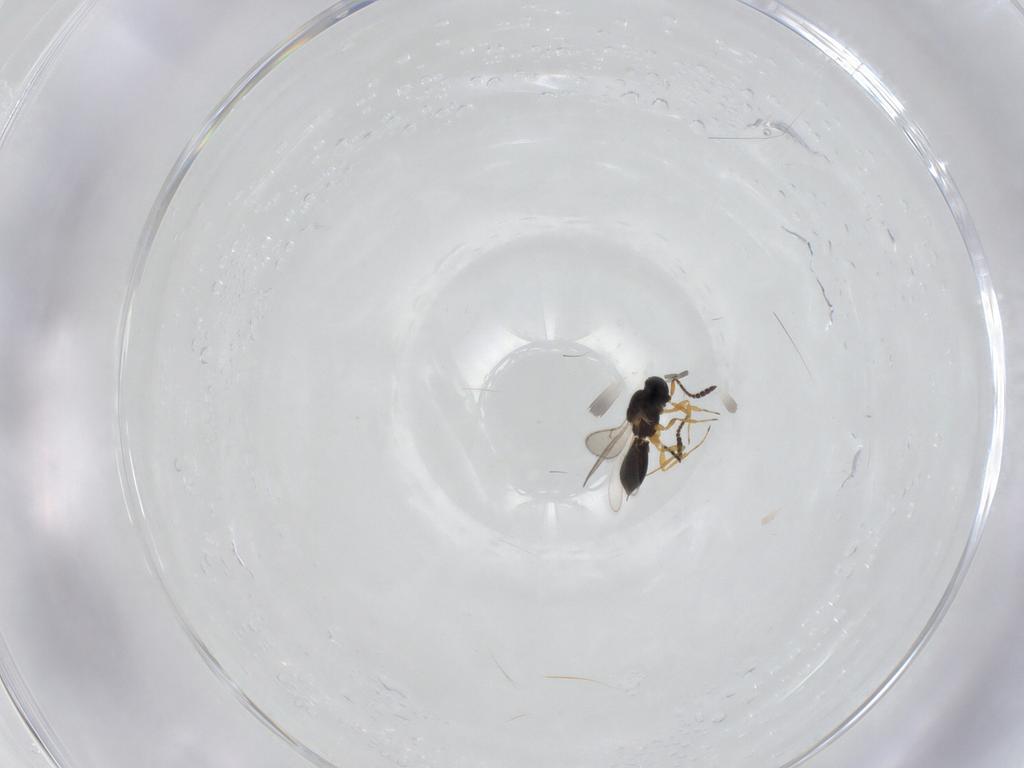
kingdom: Animalia
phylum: Arthropoda
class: Insecta
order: Hymenoptera
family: Scelionidae
